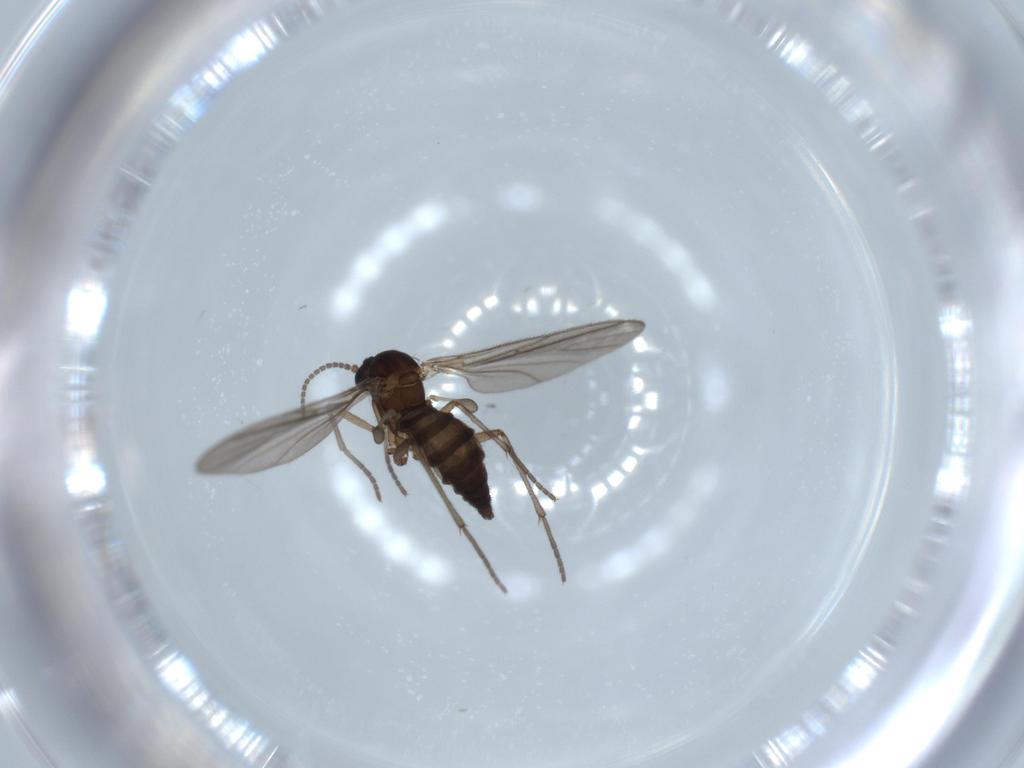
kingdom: Animalia
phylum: Arthropoda
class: Insecta
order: Diptera
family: Sciaridae
